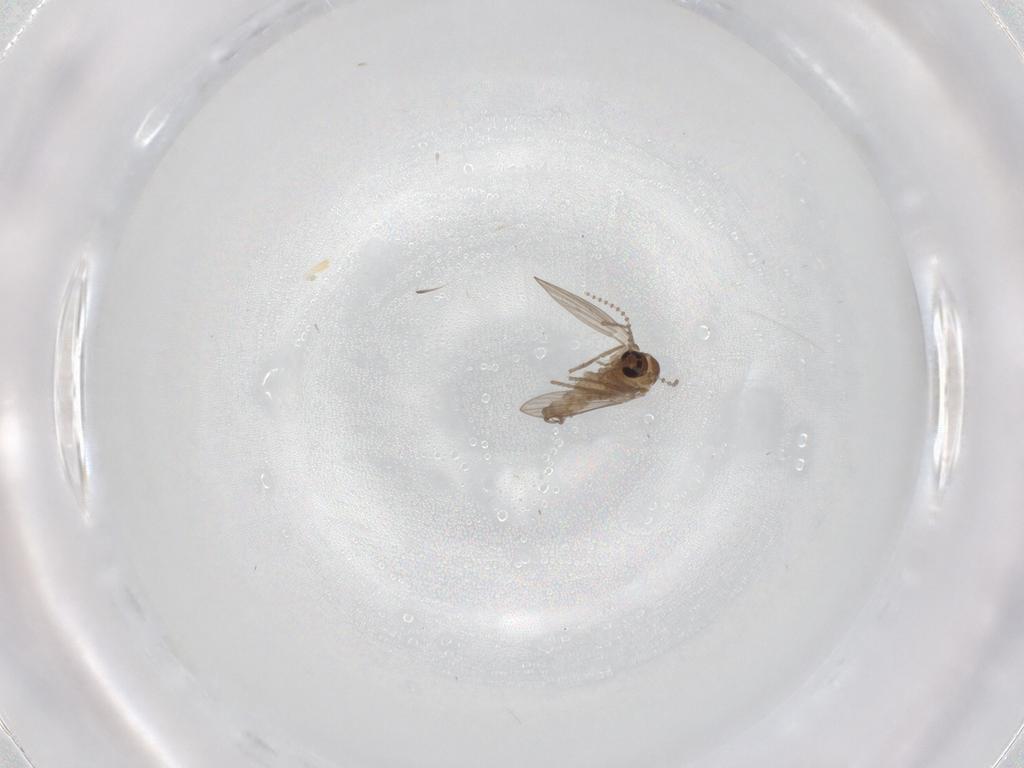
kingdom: Animalia
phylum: Arthropoda
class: Insecta
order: Diptera
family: Psychodidae
